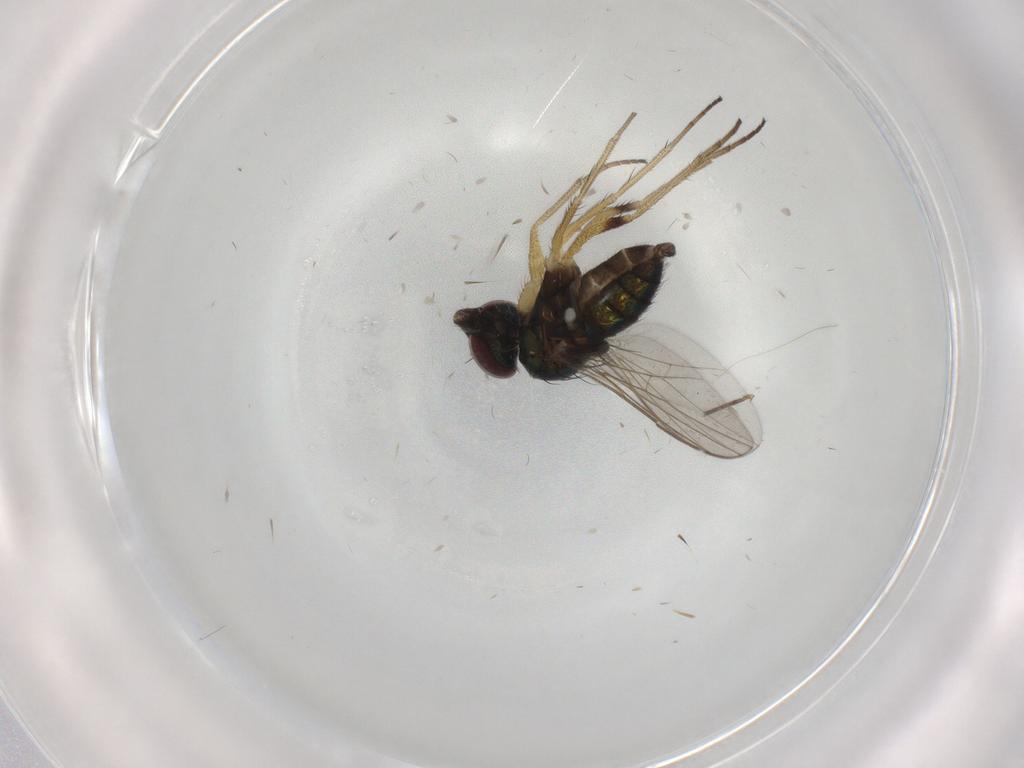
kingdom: Animalia
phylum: Arthropoda
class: Insecta
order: Diptera
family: Dolichopodidae
